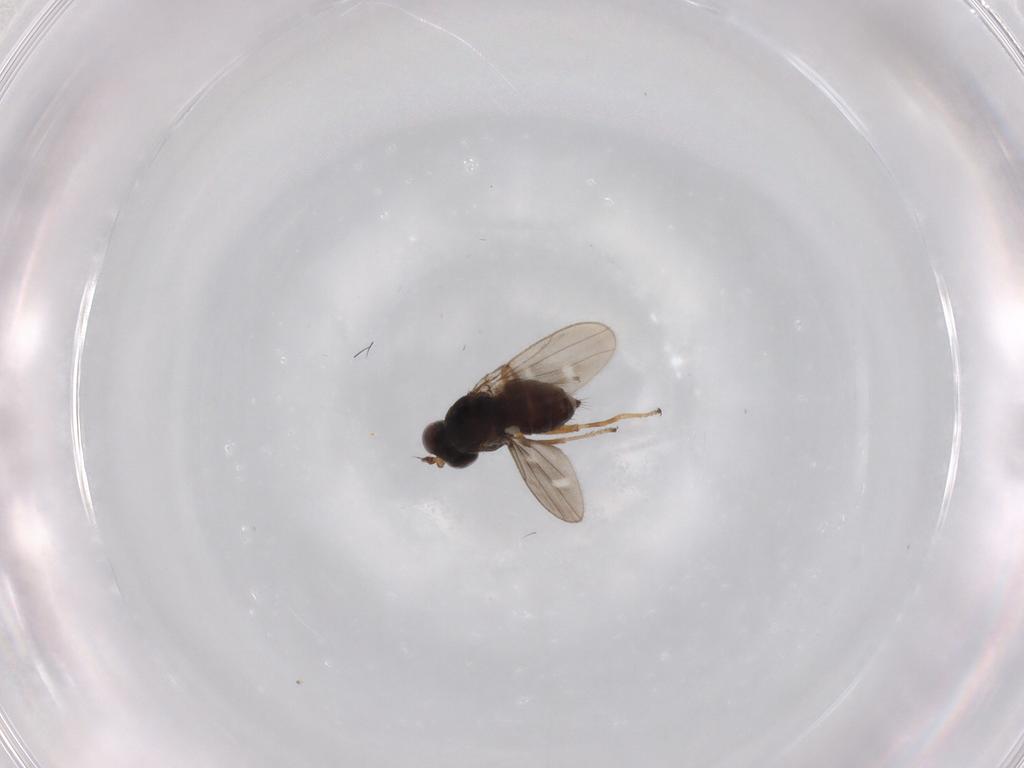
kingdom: Animalia
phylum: Arthropoda
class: Insecta
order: Diptera
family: Ephydridae
